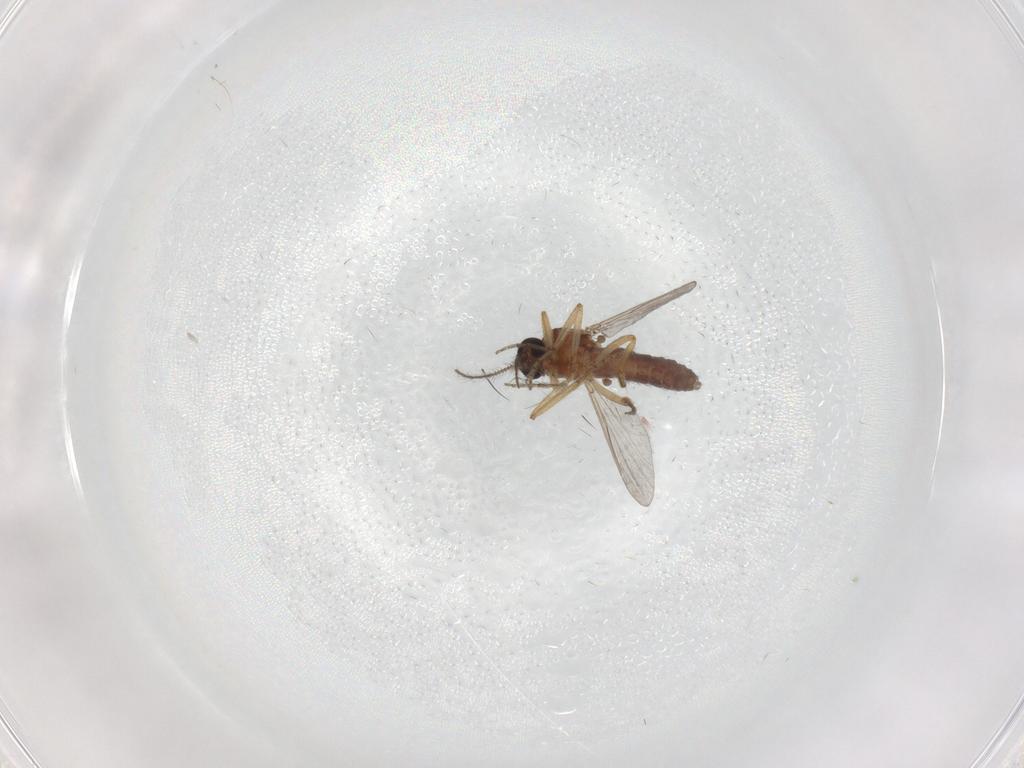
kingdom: Animalia
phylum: Arthropoda
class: Insecta
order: Diptera
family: Ceratopogonidae
